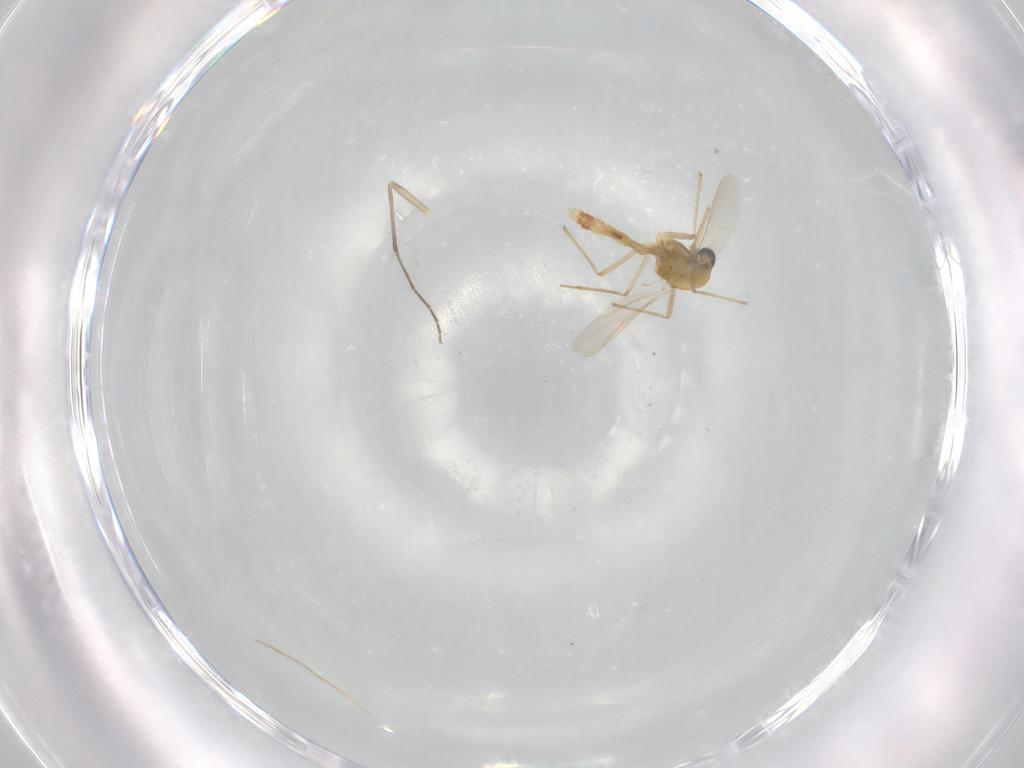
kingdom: Animalia
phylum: Arthropoda
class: Insecta
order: Diptera
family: Chironomidae
